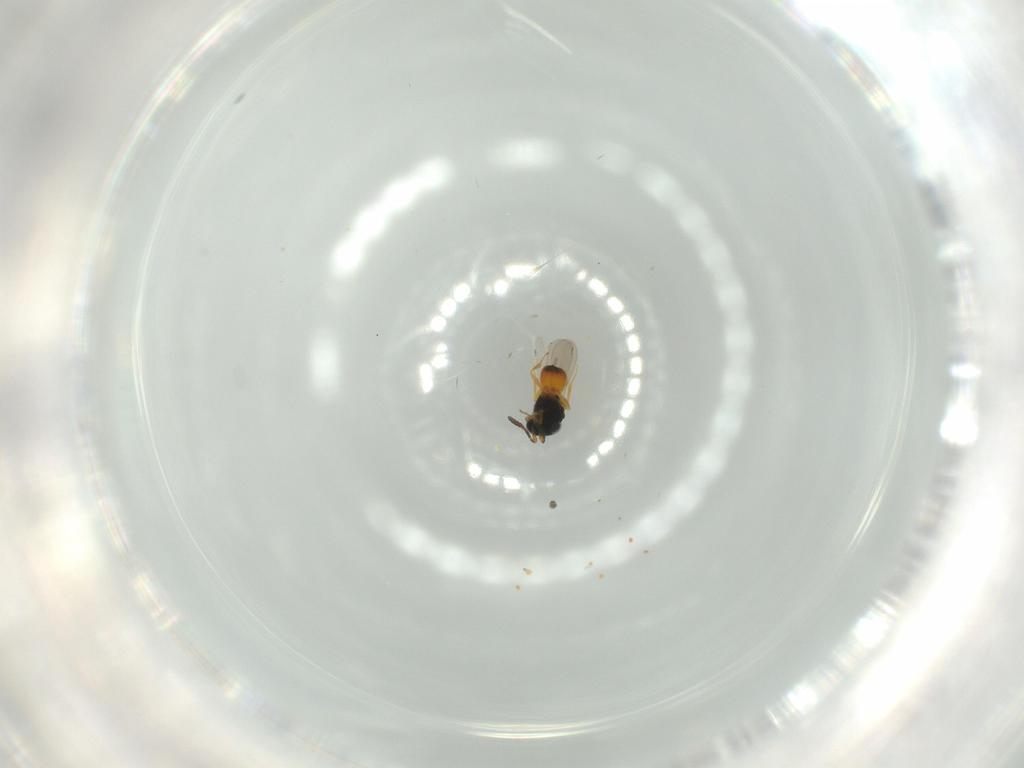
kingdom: Animalia
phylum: Arthropoda
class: Insecta
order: Hymenoptera
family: Scelionidae
